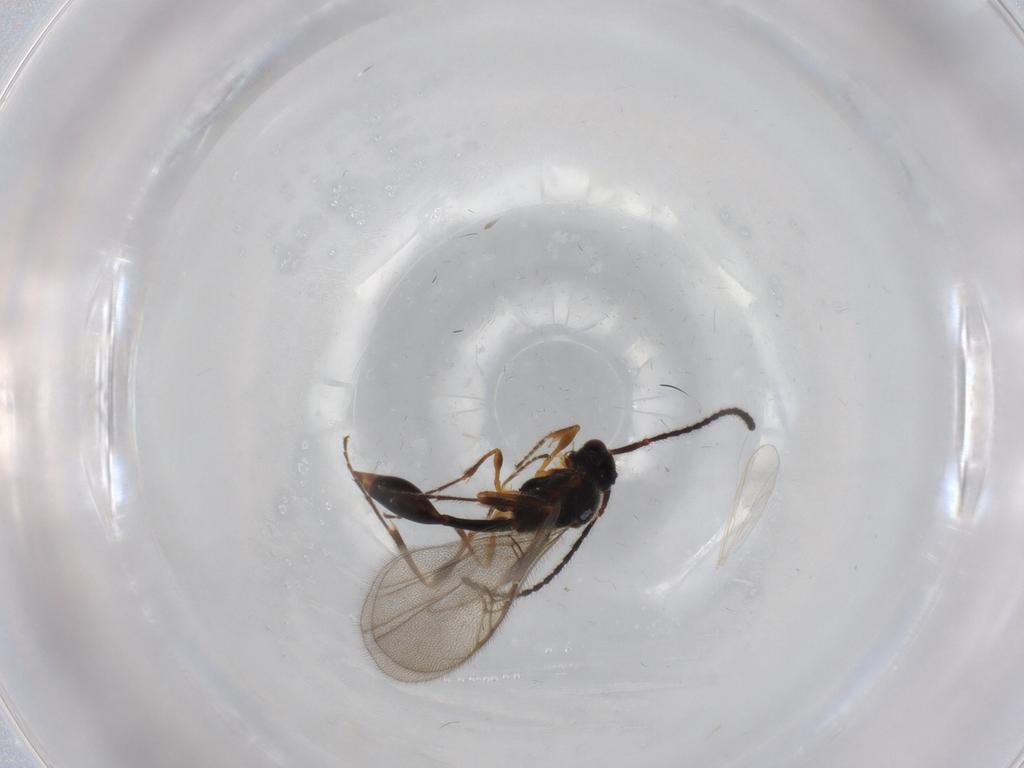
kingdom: Animalia
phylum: Arthropoda
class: Insecta
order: Hymenoptera
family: Diapriidae
